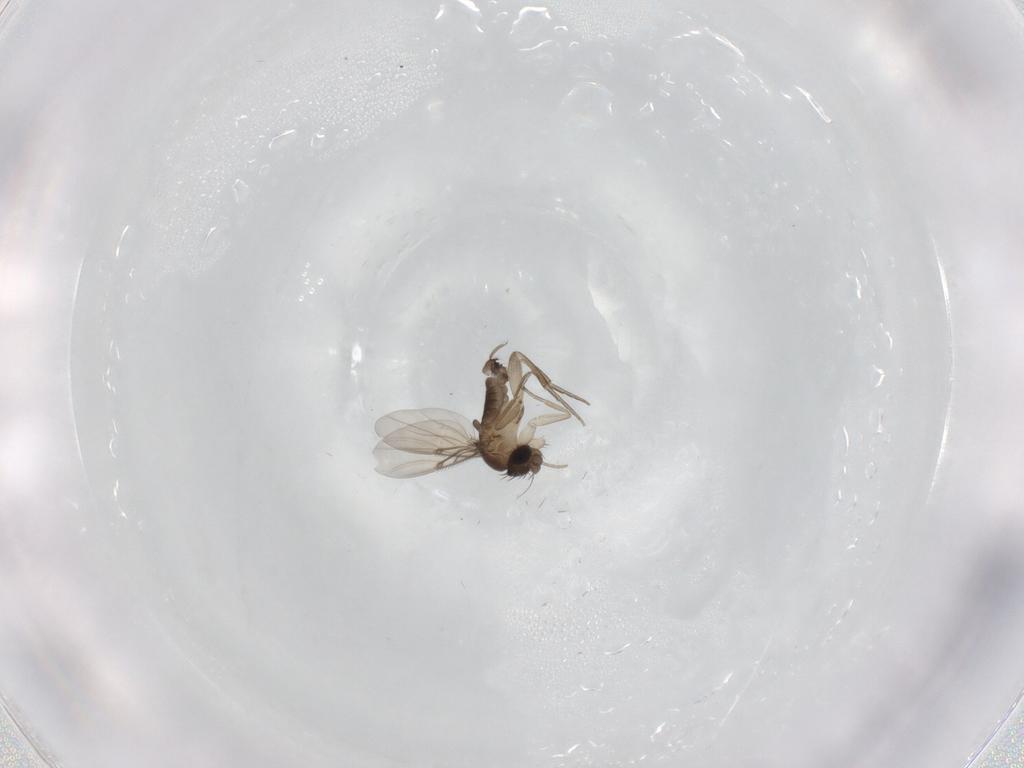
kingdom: Animalia
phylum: Arthropoda
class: Insecta
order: Diptera
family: Phoridae
